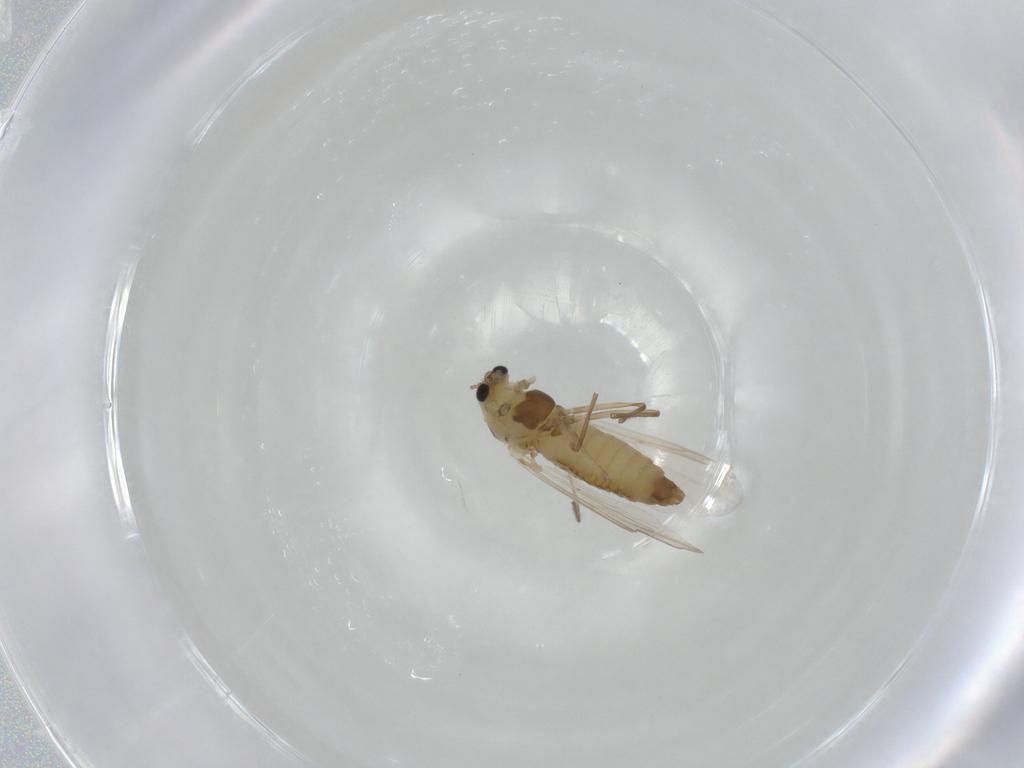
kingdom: Animalia
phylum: Arthropoda
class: Insecta
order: Diptera
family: Chironomidae
